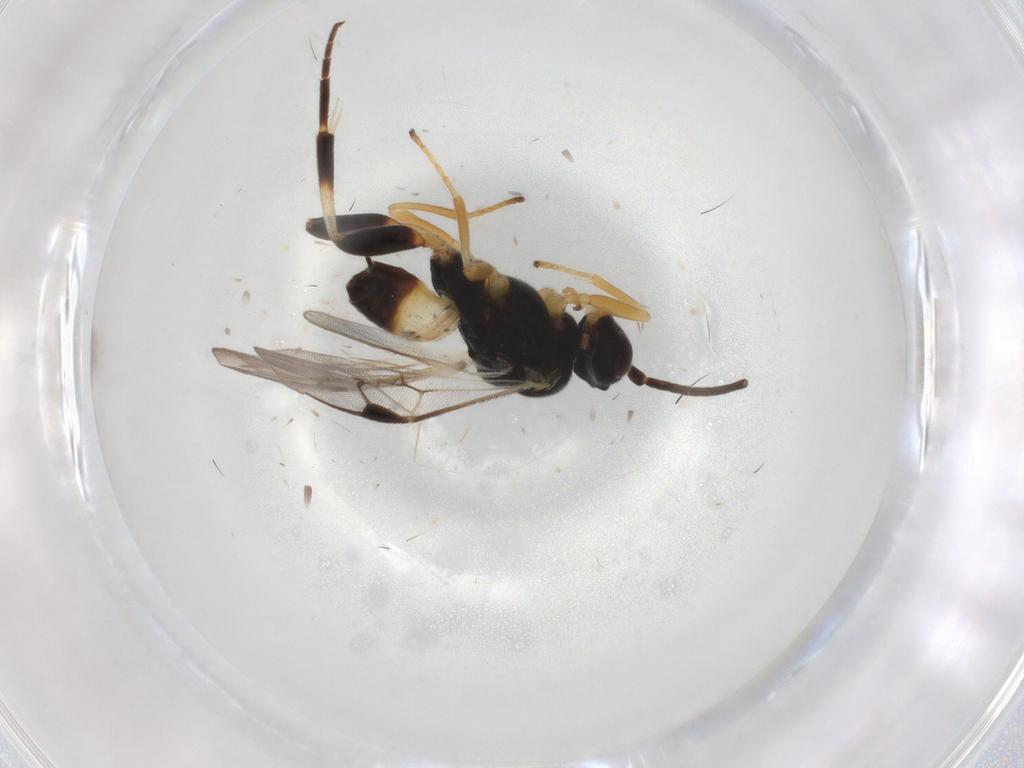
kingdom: Animalia
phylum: Arthropoda
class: Insecta
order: Hymenoptera
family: Braconidae
